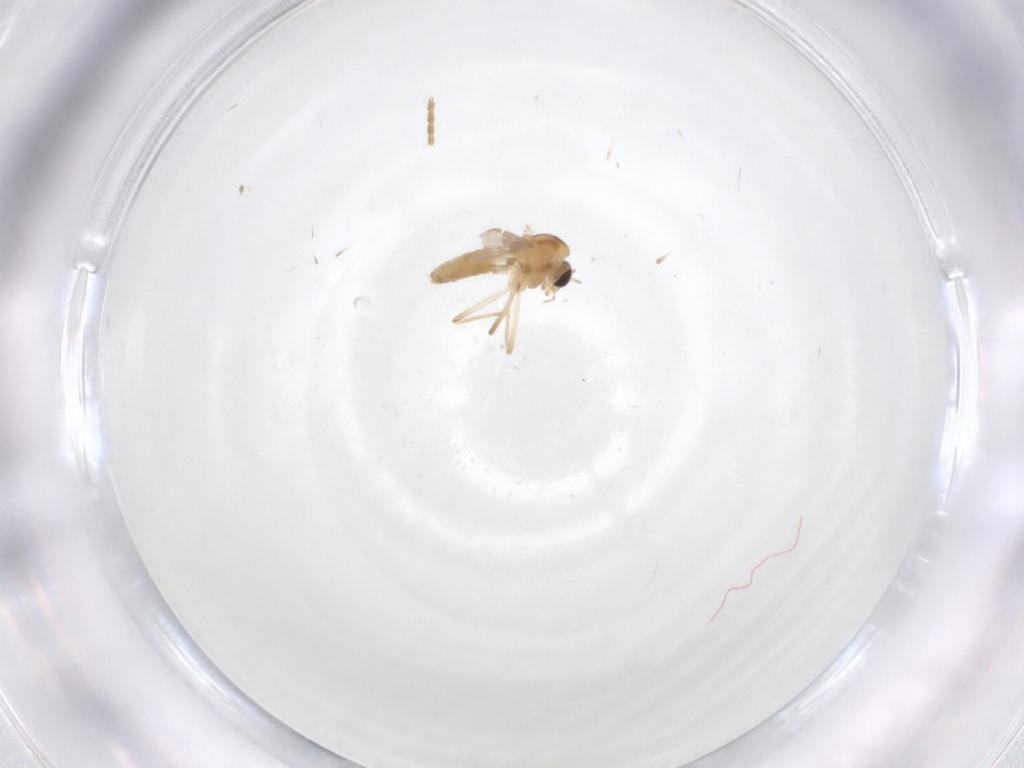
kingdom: Animalia
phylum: Arthropoda
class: Insecta
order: Diptera
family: Chironomidae
